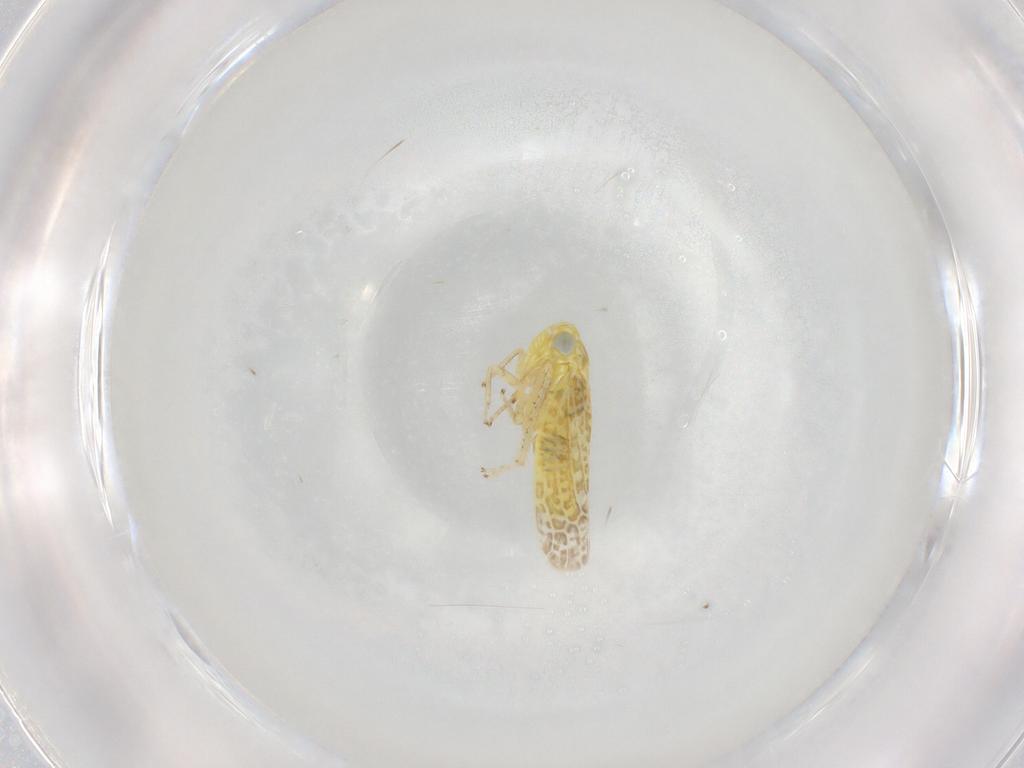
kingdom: Animalia
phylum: Arthropoda
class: Insecta
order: Hemiptera
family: Cicadellidae
